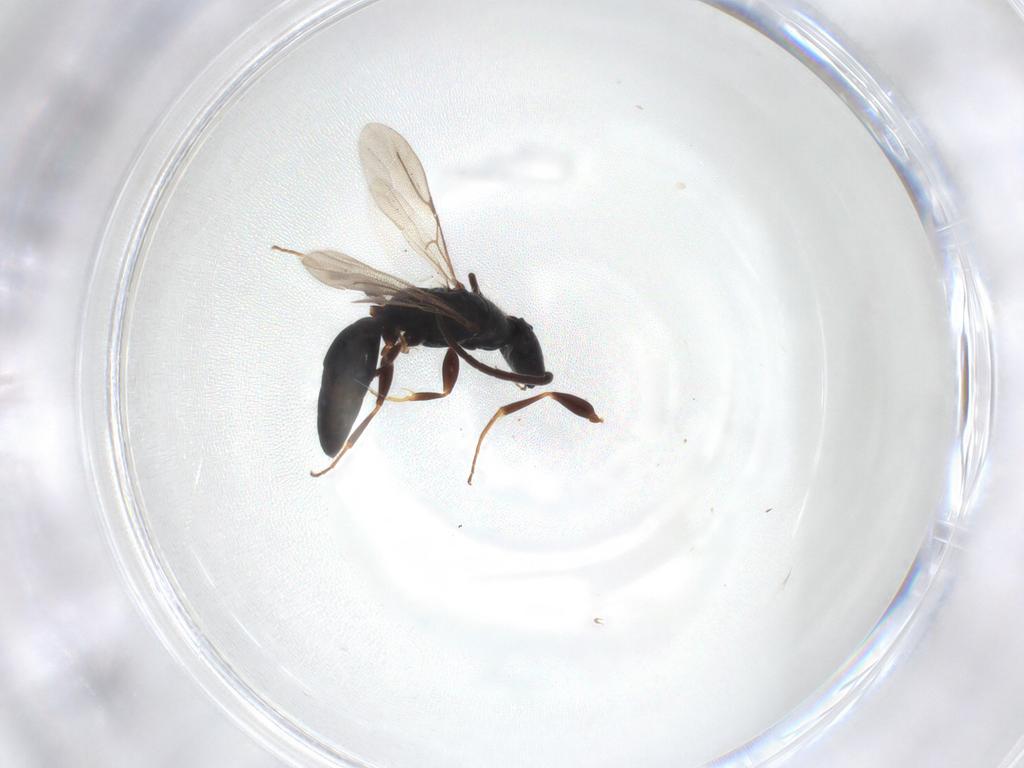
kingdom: Animalia
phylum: Arthropoda
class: Insecta
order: Hymenoptera
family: Bethylidae
